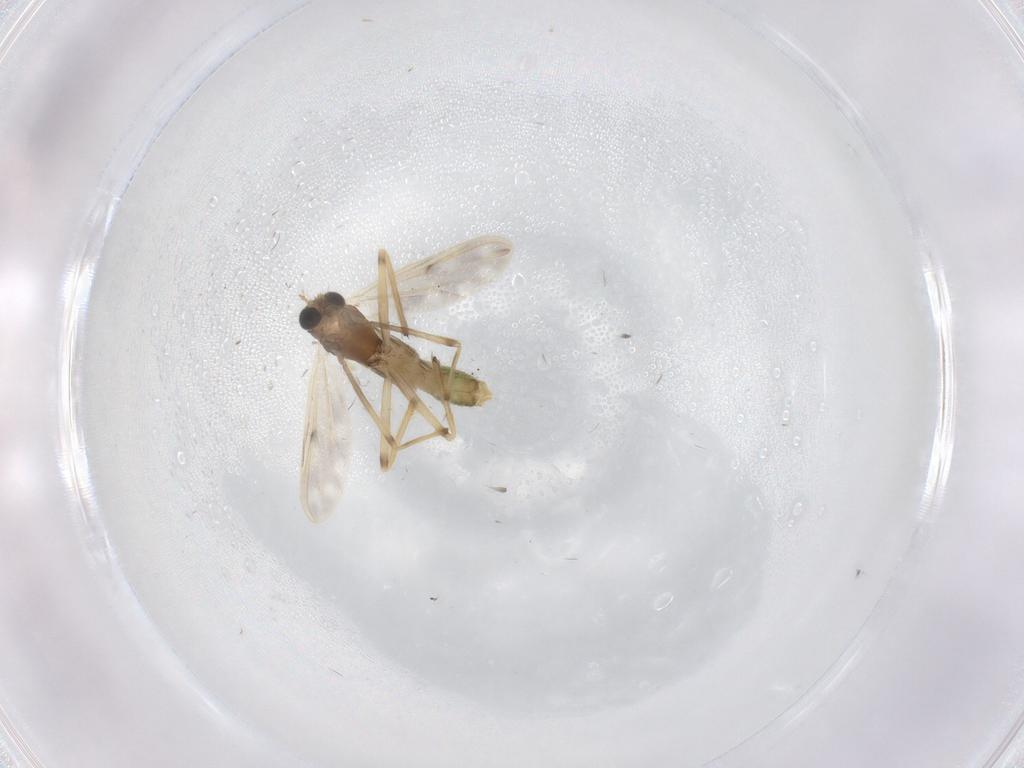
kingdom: Animalia
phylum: Arthropoda
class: Insecta
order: Diptera
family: Chironomidae
